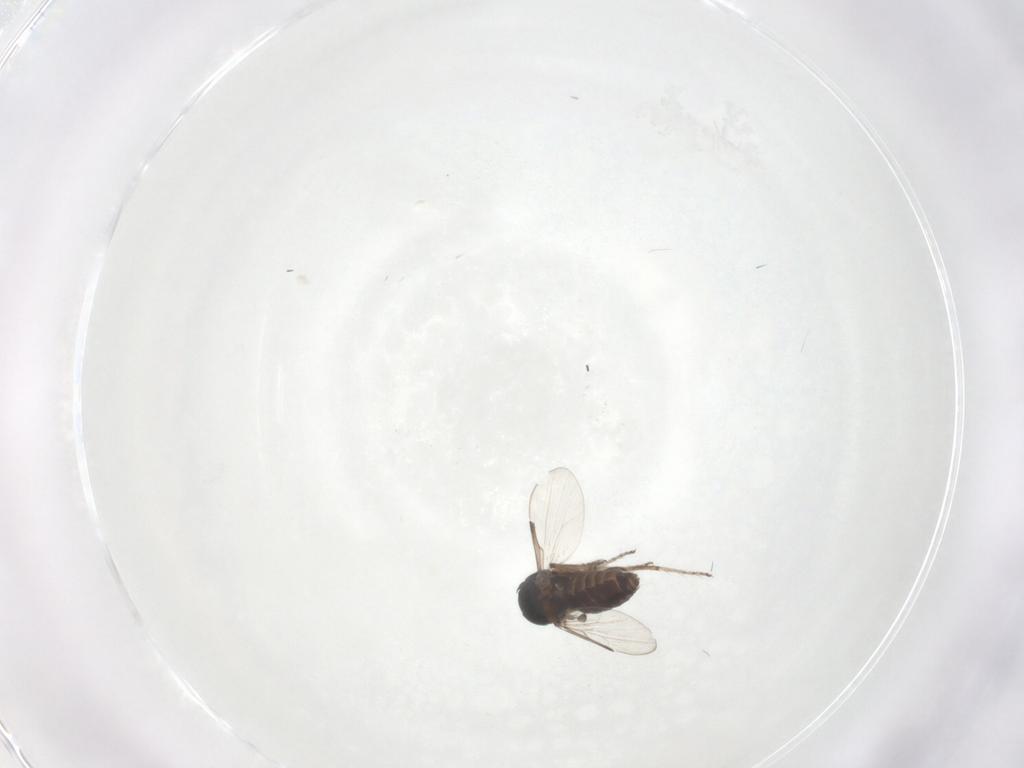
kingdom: Animalia
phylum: Arthropoda
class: Insecta
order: Diptera
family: Ceratopogonidae
